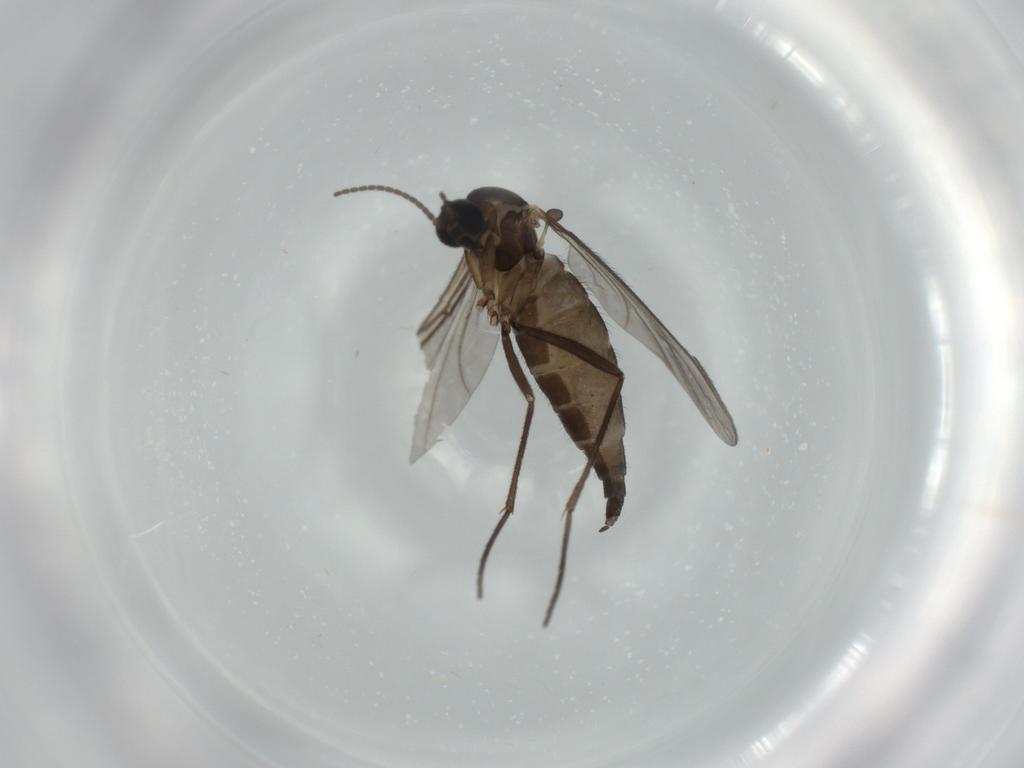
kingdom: Animalia
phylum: Arthropoda
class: Insecta
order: Diptera
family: Sciaridae
